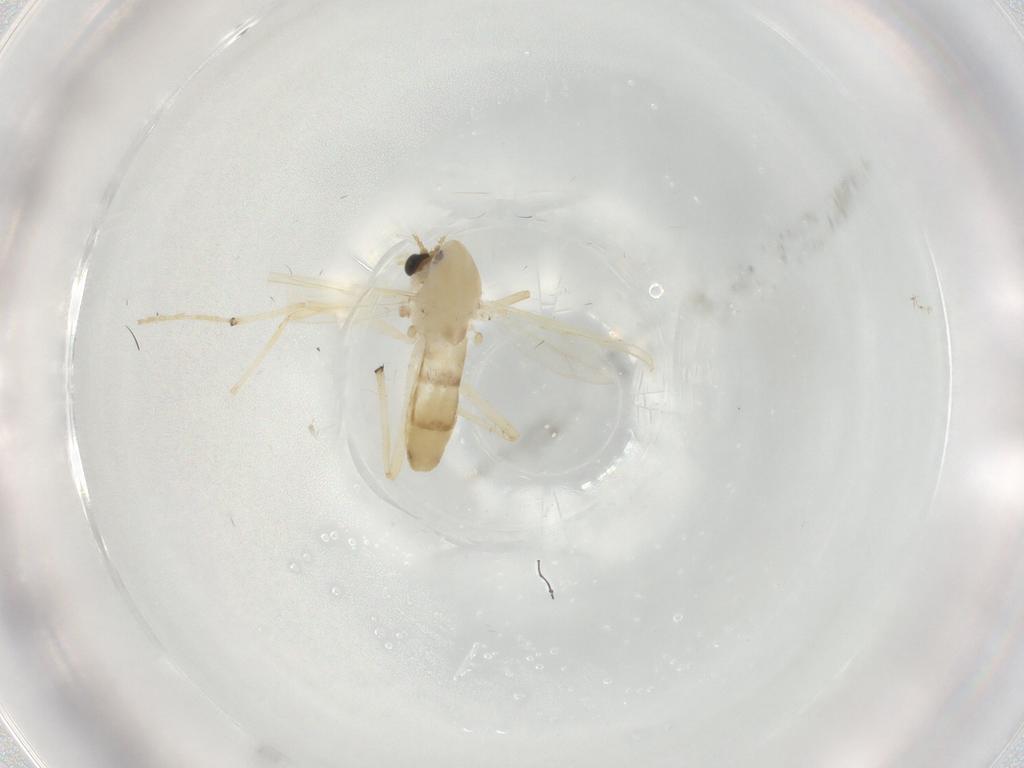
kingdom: Animalia
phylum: Arthropoda
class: Insecta
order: Diptera
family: Chironomidae
